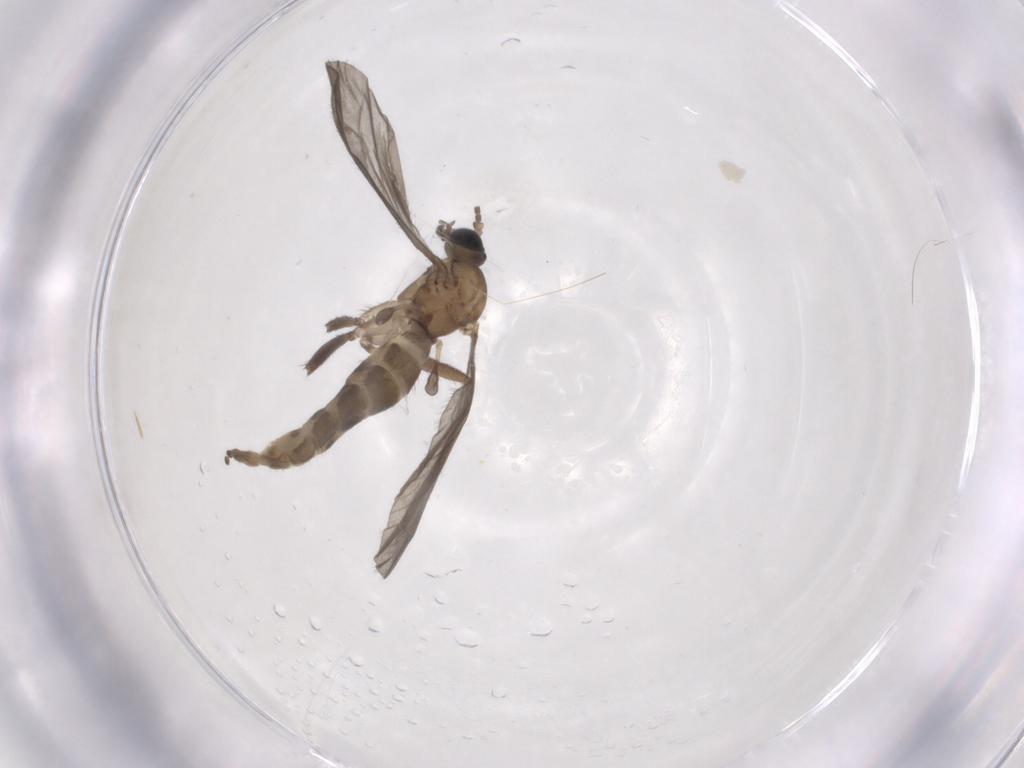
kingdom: Animalia
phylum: Arthropoda
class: Insecta
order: Diptera
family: Sciaridae
